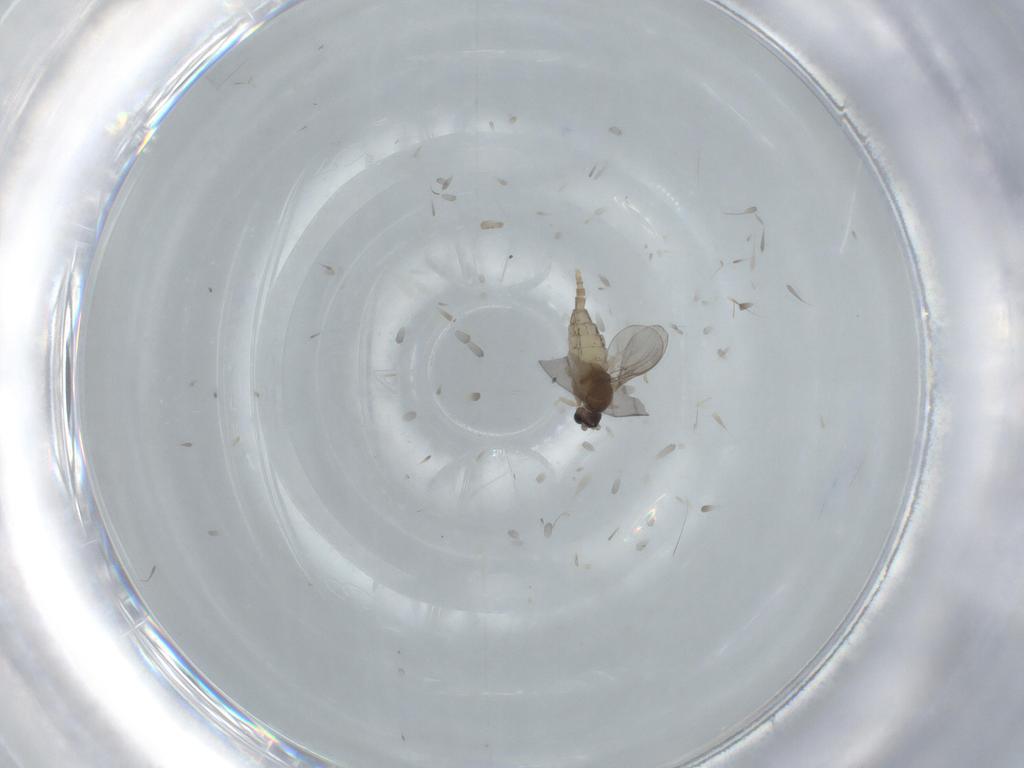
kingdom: Animalia
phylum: Arthropoda
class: Insecta
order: Diptera
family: Cecidomyiidae
